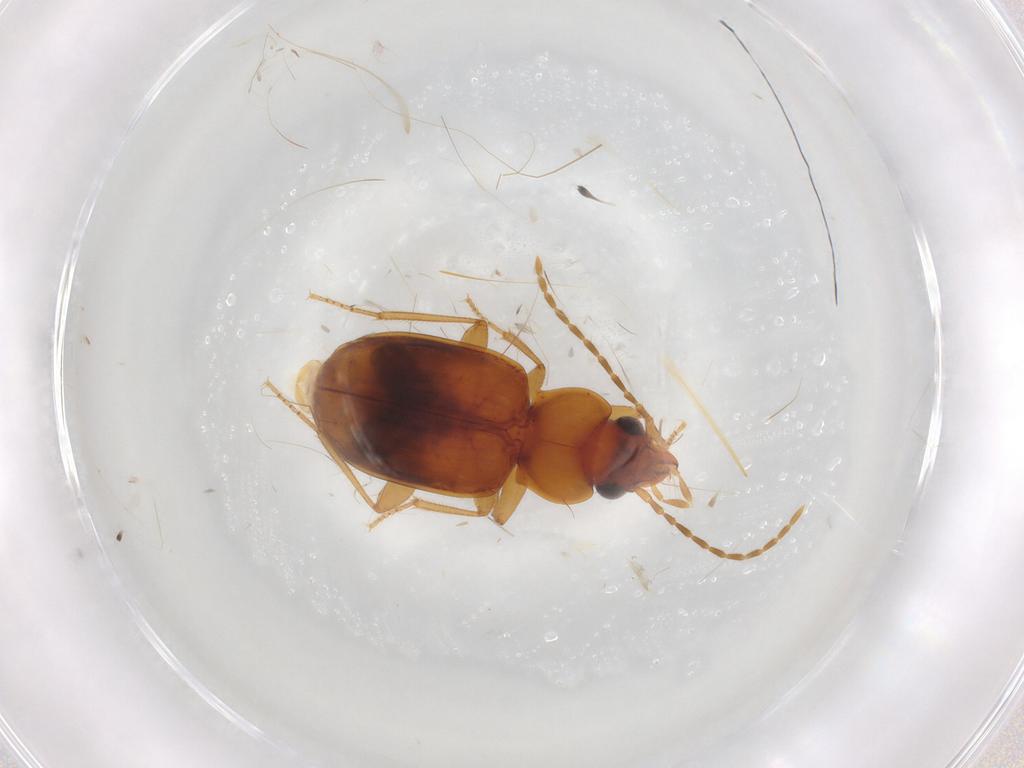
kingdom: Animalia
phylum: Arthropoda
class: Insecta
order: Coleoptera
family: Carabidae
